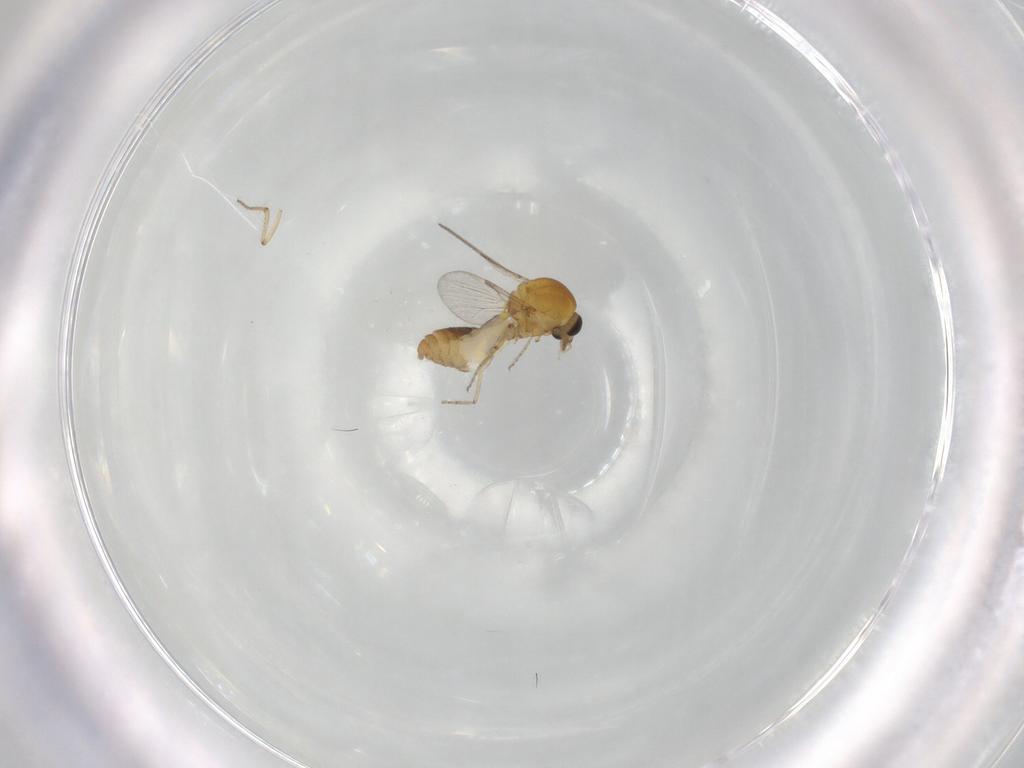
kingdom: Animalia
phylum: Arthropoda
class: Insecta
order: Diptera
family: Ceratopogonidae
